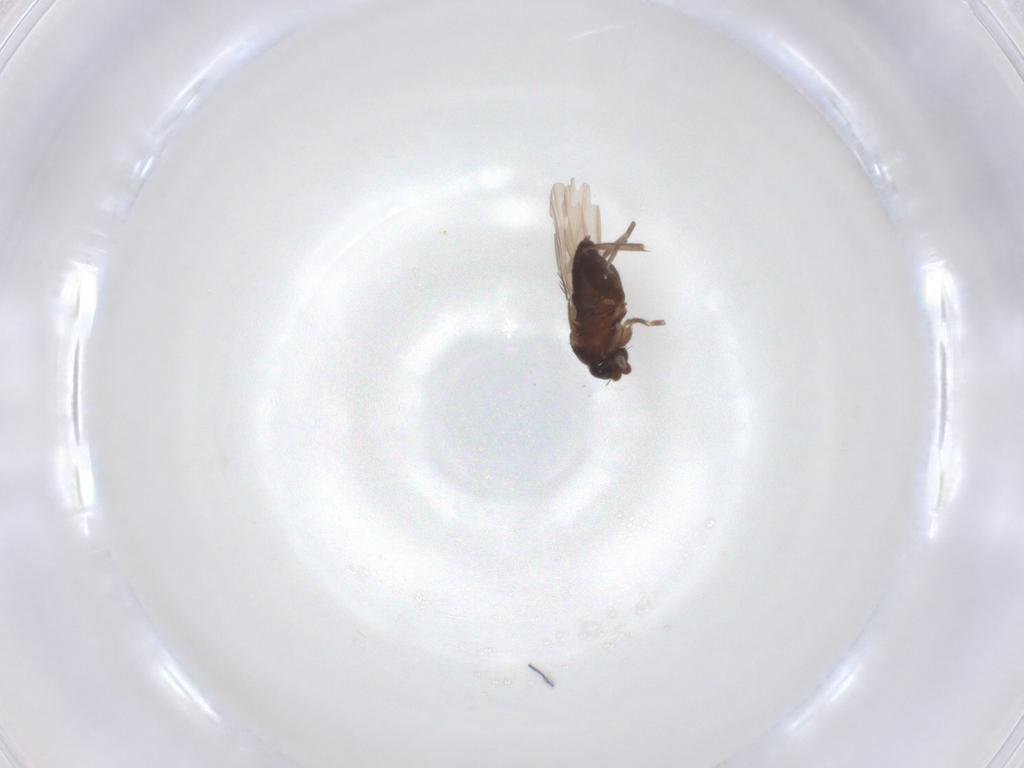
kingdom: Animalia
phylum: Arthropoda
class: Insecta
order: Diptera
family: Phoridae
